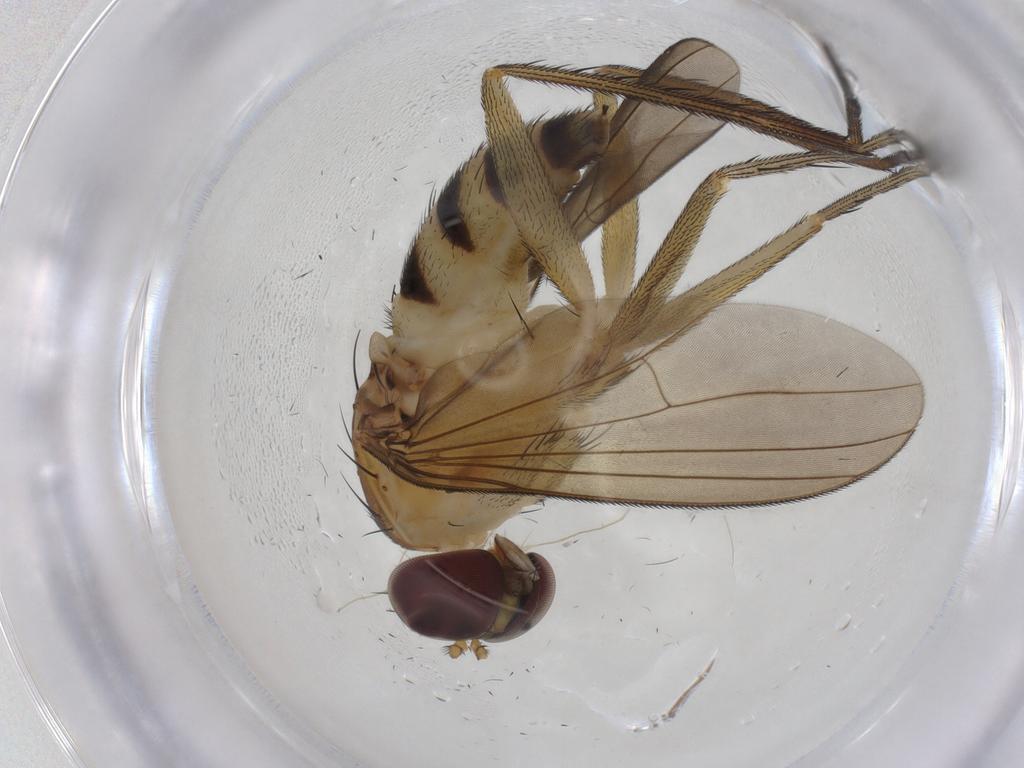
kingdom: Animalia
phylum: Arthropoda
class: Insecta
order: Diptera
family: Dolichopodidae
